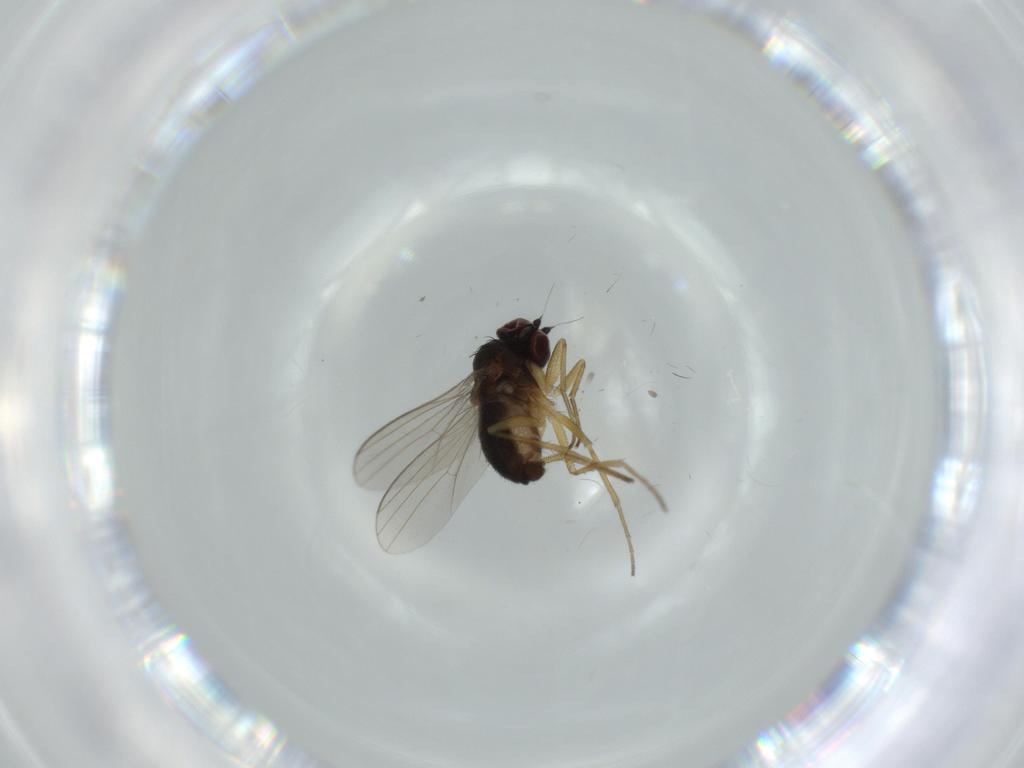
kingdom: Animalia
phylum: Arthropoda
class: Insecta
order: Diptera
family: Dolichopodidae
